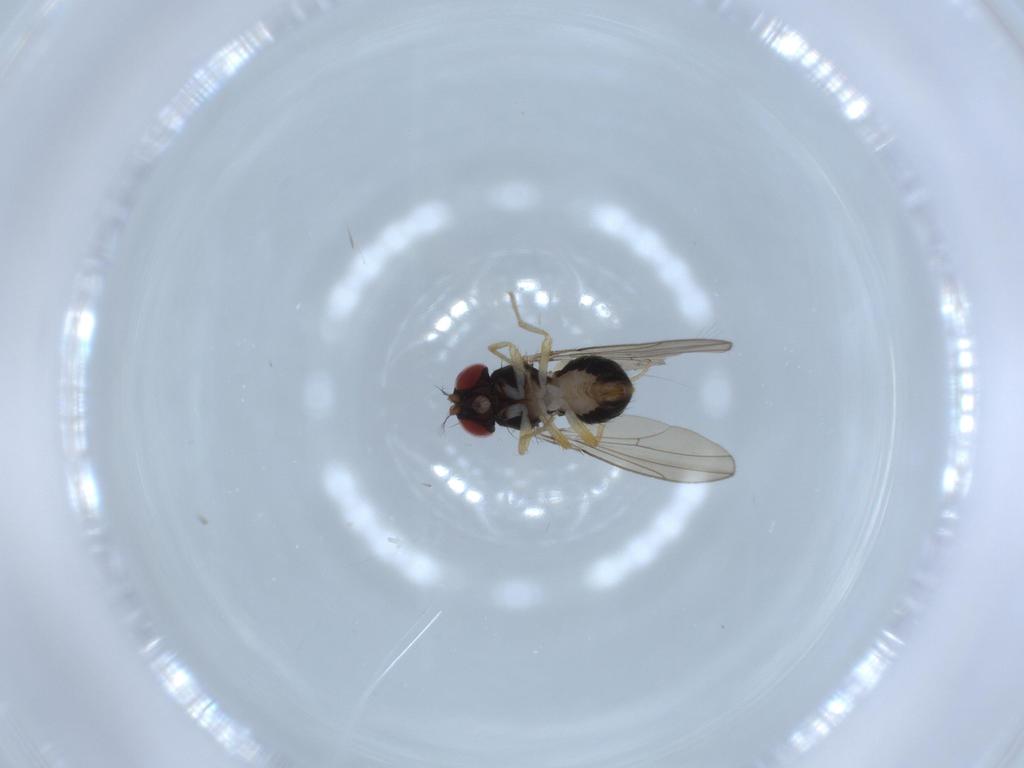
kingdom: Animalia
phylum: Arthropoda
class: Insecta
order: Diptera
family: Drosophilidae
